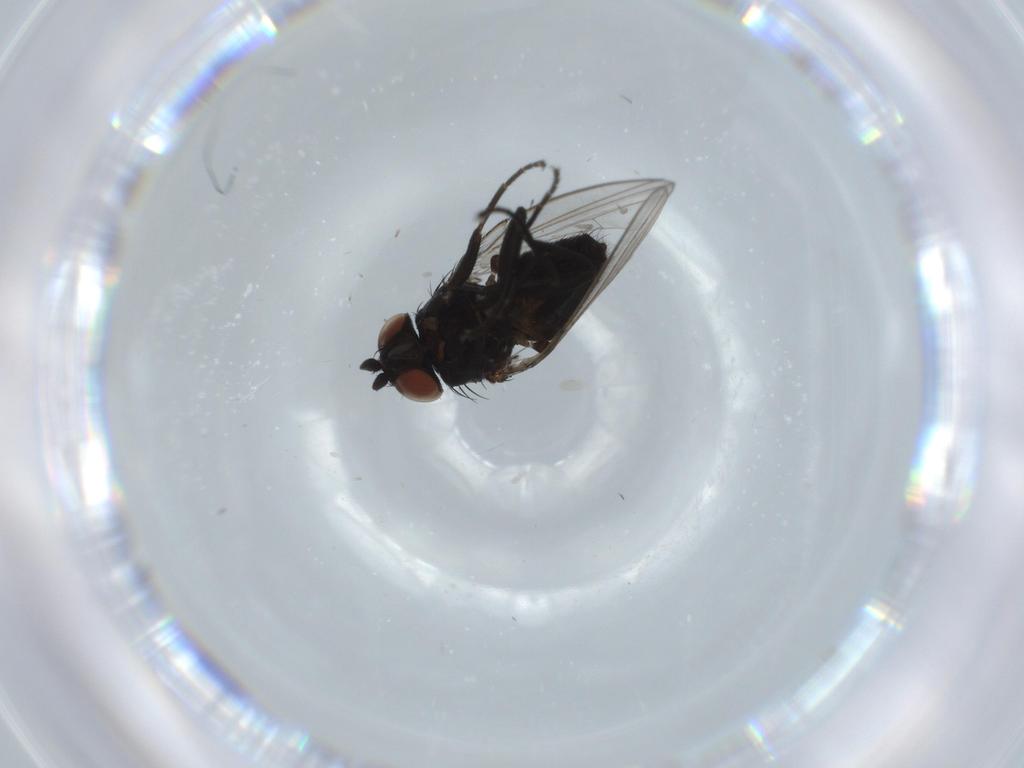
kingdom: Animalia
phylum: Arthropoda
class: Insecta
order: Diptera
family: Milichiidae
